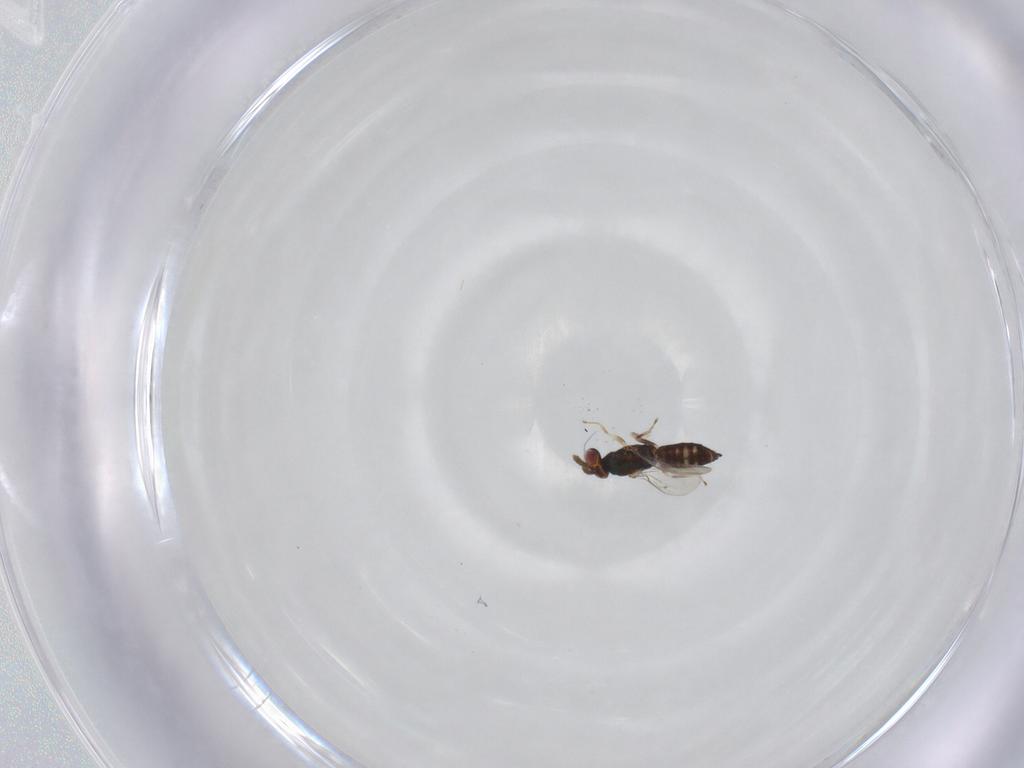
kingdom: Animalia
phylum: Arthropoda
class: Insecta
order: Hymenoptera
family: Eulophidae
